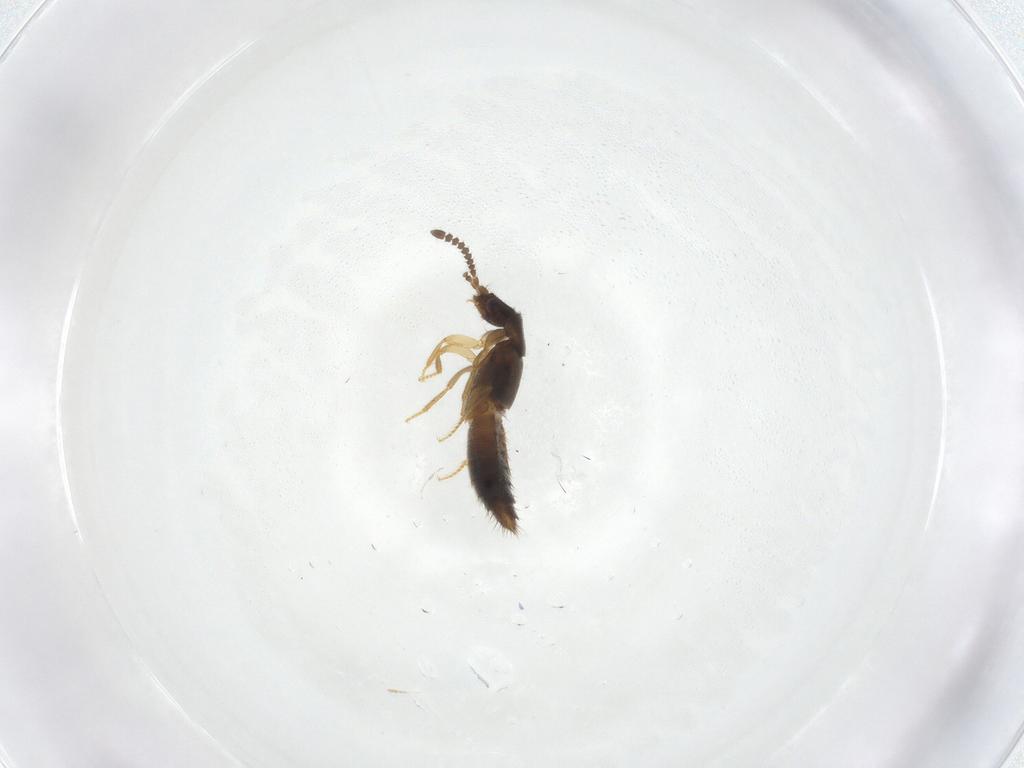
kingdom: Animalia
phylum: Arthropoda
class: Insecta
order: Coleoptera
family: Staphylinidae
